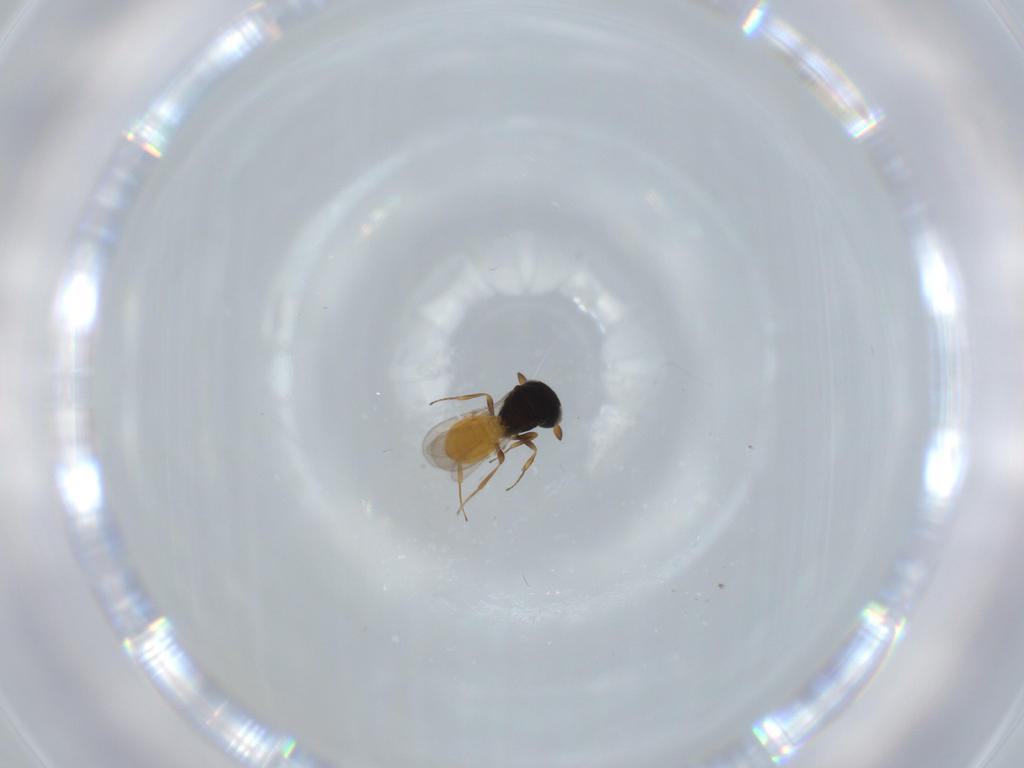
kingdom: Animalia
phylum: Arthropoda
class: Insecta
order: Hymenoptera
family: Scelionidae
